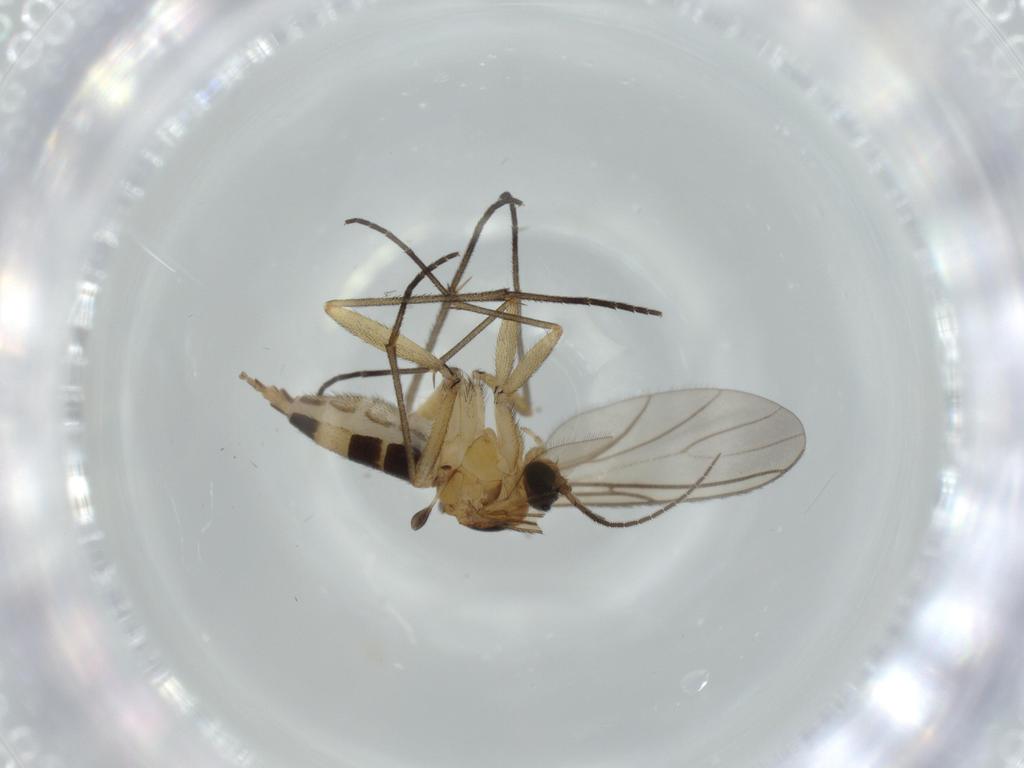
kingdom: Animalia
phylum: Arthropoda
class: Insecta
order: Diptera
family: Sciaridae
